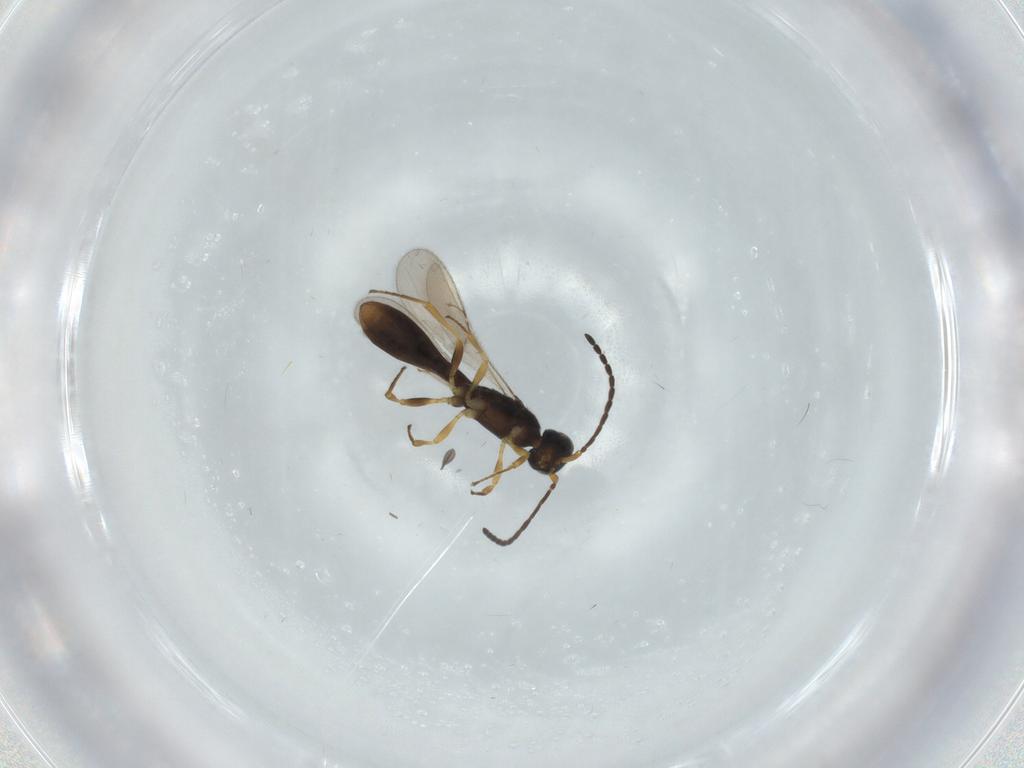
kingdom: Animalia
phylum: Arthropoda
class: Insecta
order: Hymenoptera
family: Scelionidae
